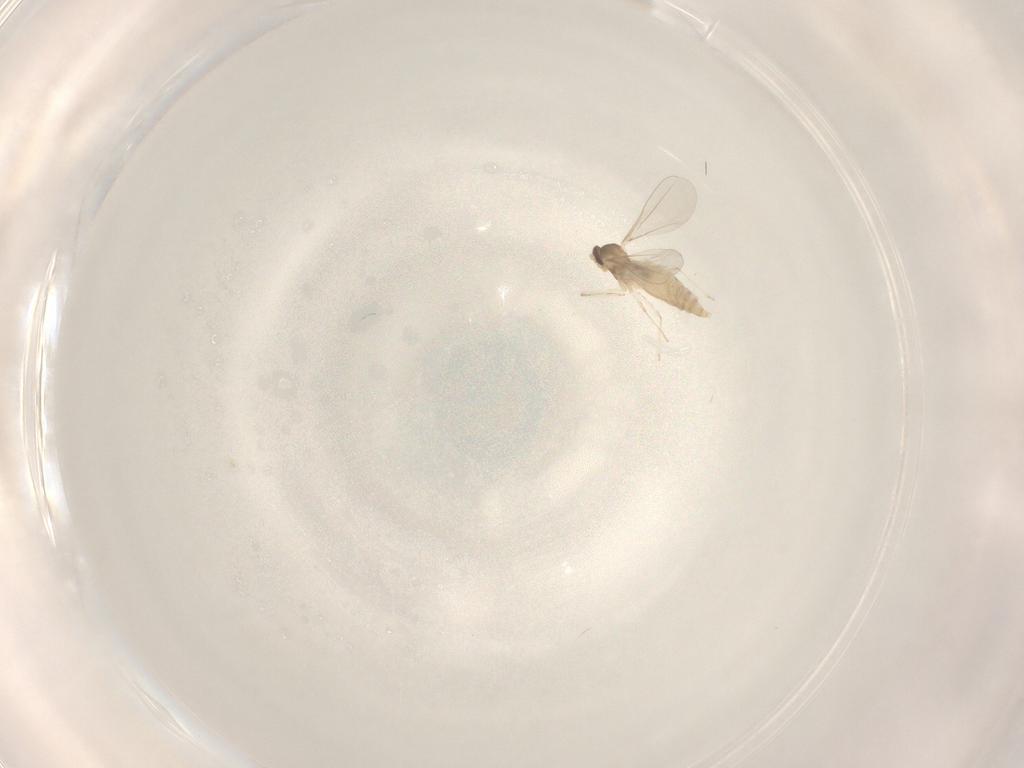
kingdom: Animalia
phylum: Arthropoda
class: Insecta
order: Diptera
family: Cecidomyiidae
